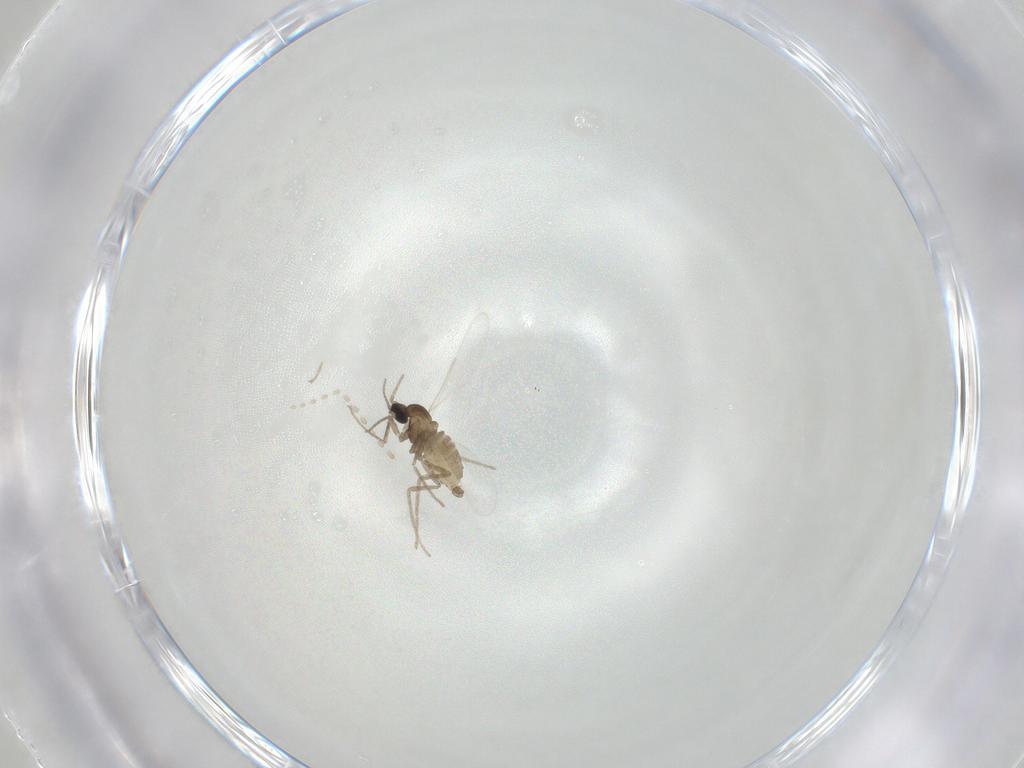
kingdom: Animalia
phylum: Arthropoda
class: Insecta
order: Diptera
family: Cecidomyiidae
